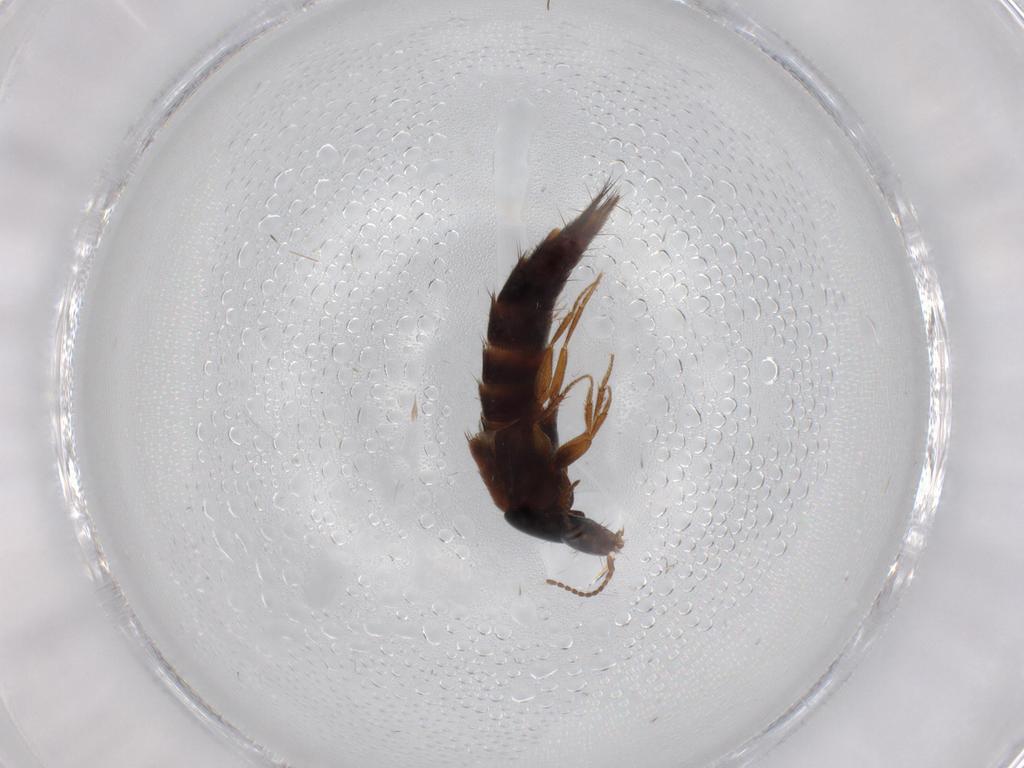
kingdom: Animalia
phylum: Arthropoda
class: Insecta
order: Coleoptera
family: Staphylinidae
